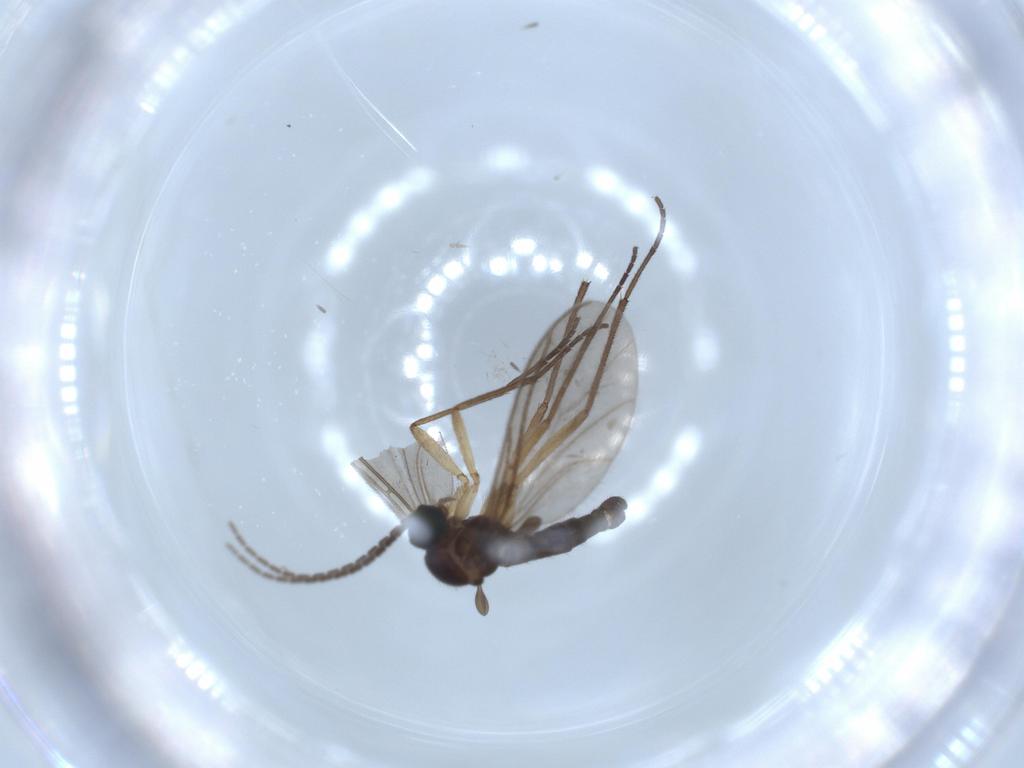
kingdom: Animalia
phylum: Arthropoda
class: Insecta
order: Diptera
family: Sciaridae
